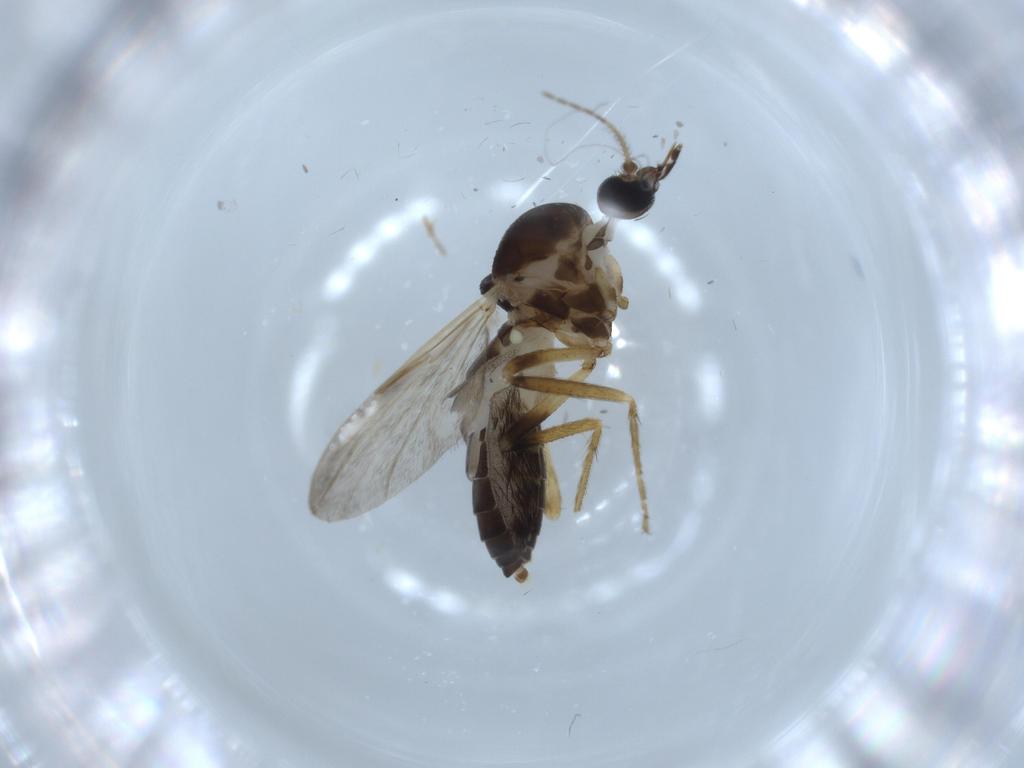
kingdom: Animalia
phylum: Arthropoda
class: Insecta
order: Diptera
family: Ceratopogonidae
